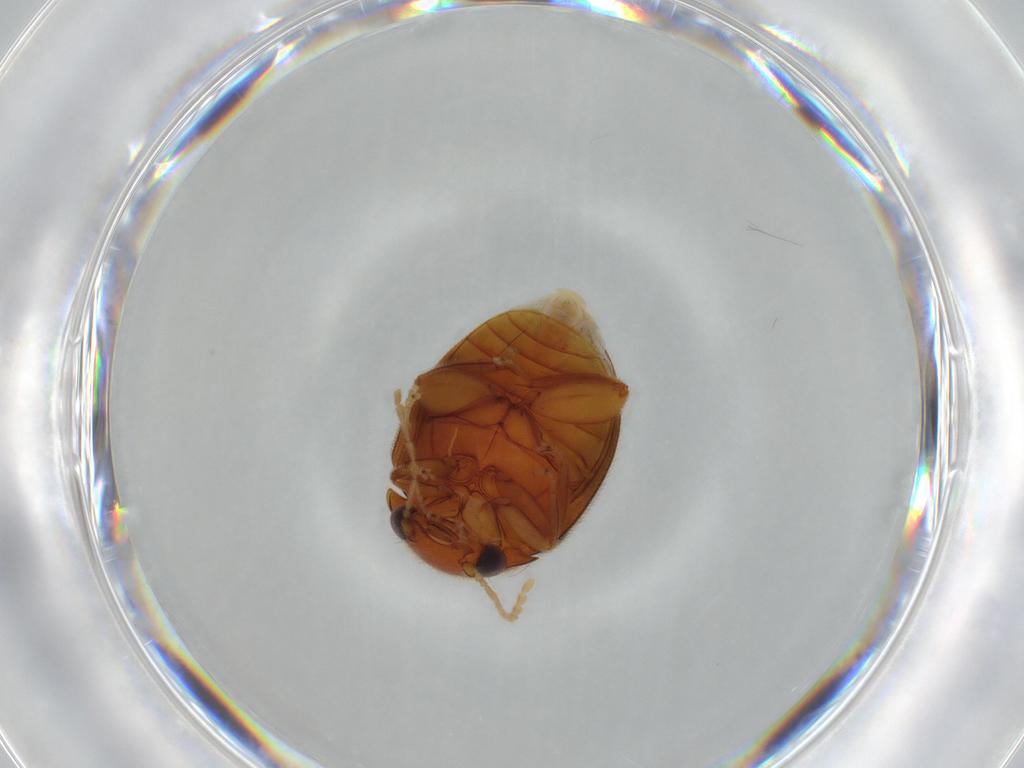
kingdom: Animalia
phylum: Arthropoda
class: Insecta
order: Coleoptera
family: Scirtidae
